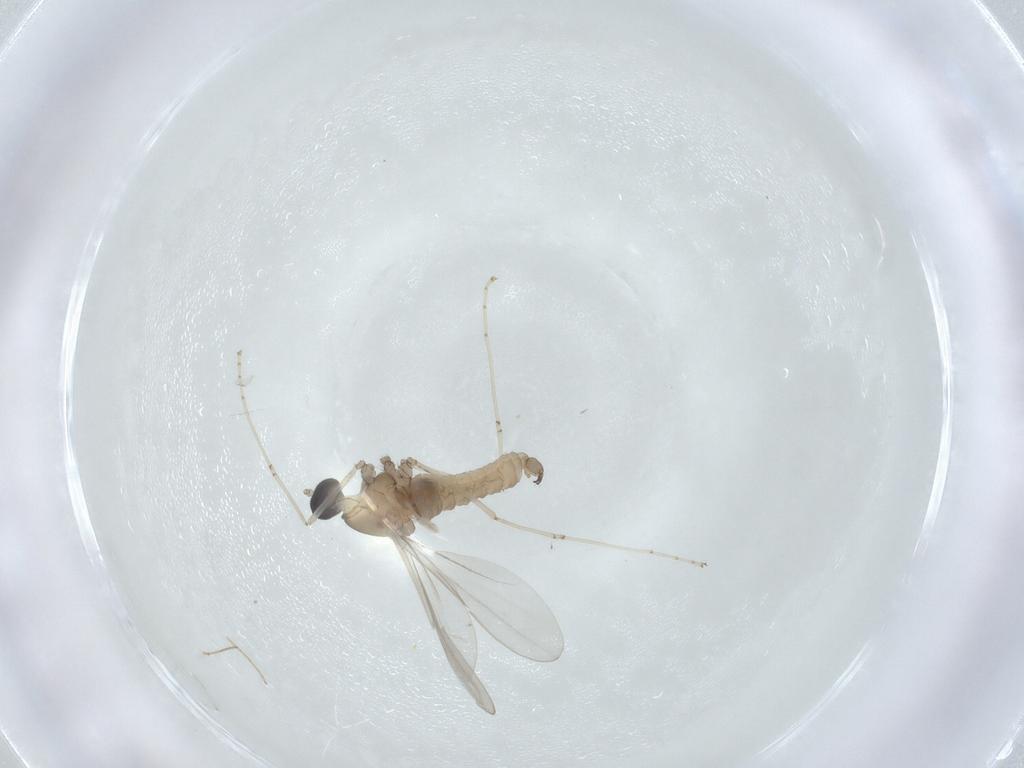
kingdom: Animalia
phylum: Arthropoda
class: Insecta
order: Diptera
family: Cecidomyiidae
